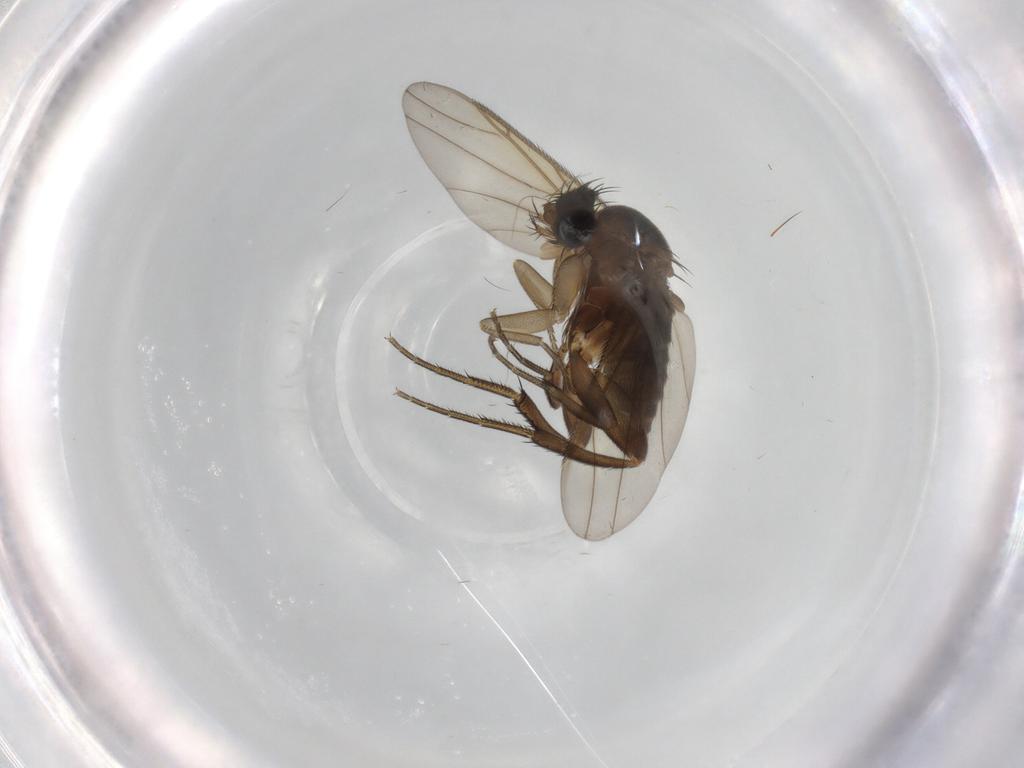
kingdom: Animalia
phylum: Arthropoda
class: Insecta
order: Diptera
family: Phoridae
